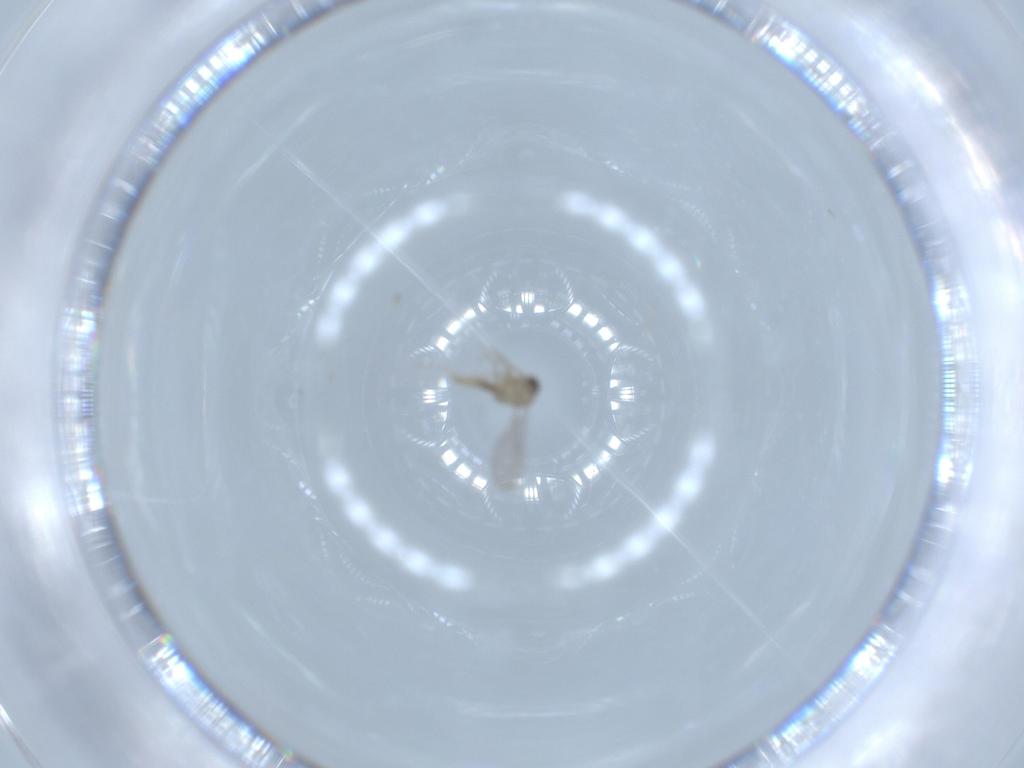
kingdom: Animalia
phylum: Arthropoda
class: Insecta
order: Diptera
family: Cecidomyiidae
